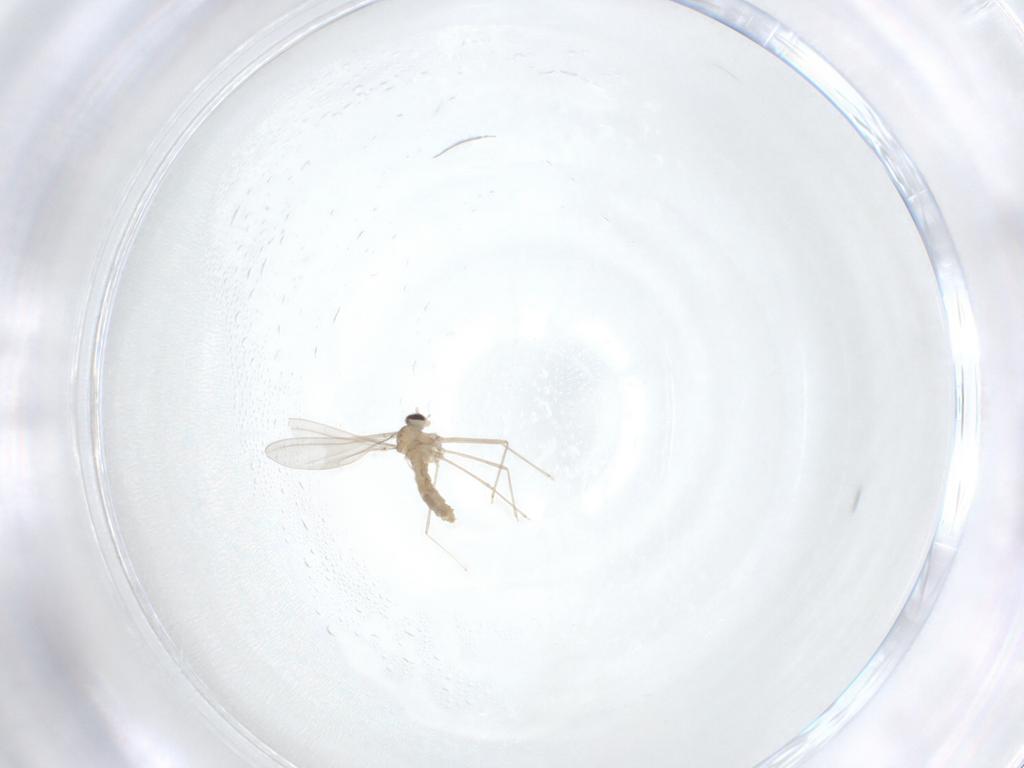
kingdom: Animalia
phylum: Arthropoda
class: Insecta
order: Diptera
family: Cecidomyiidae
